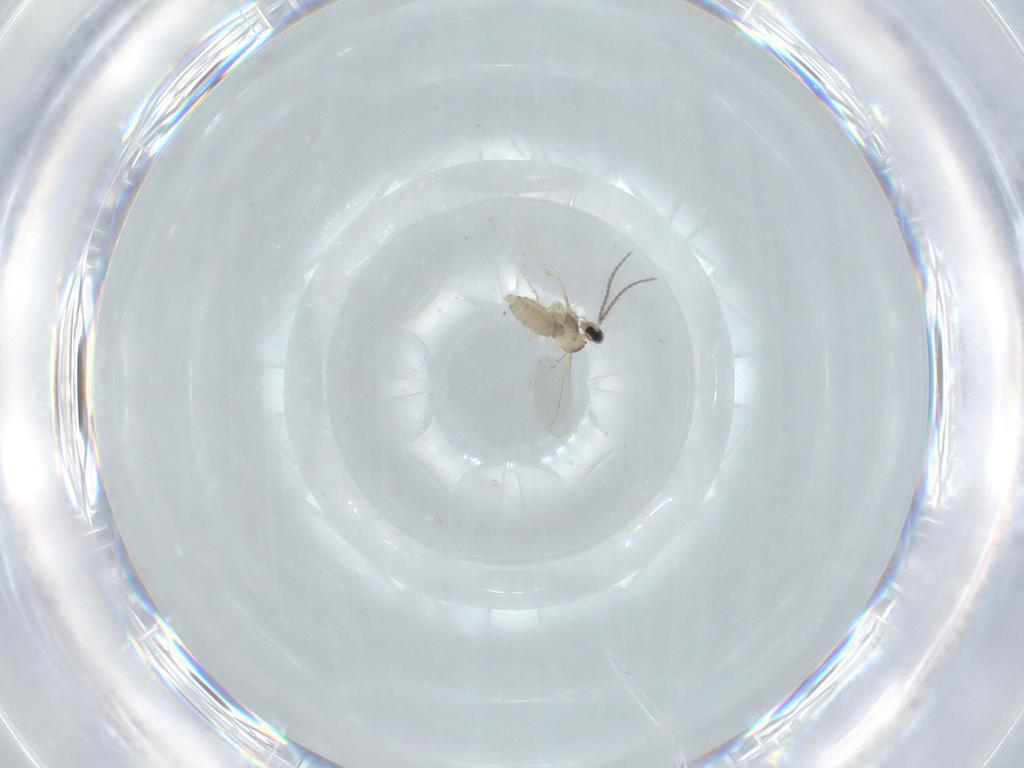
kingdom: Animalia
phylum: Arthropoda
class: Insecta
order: Diptera
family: Cecidomyiidae
